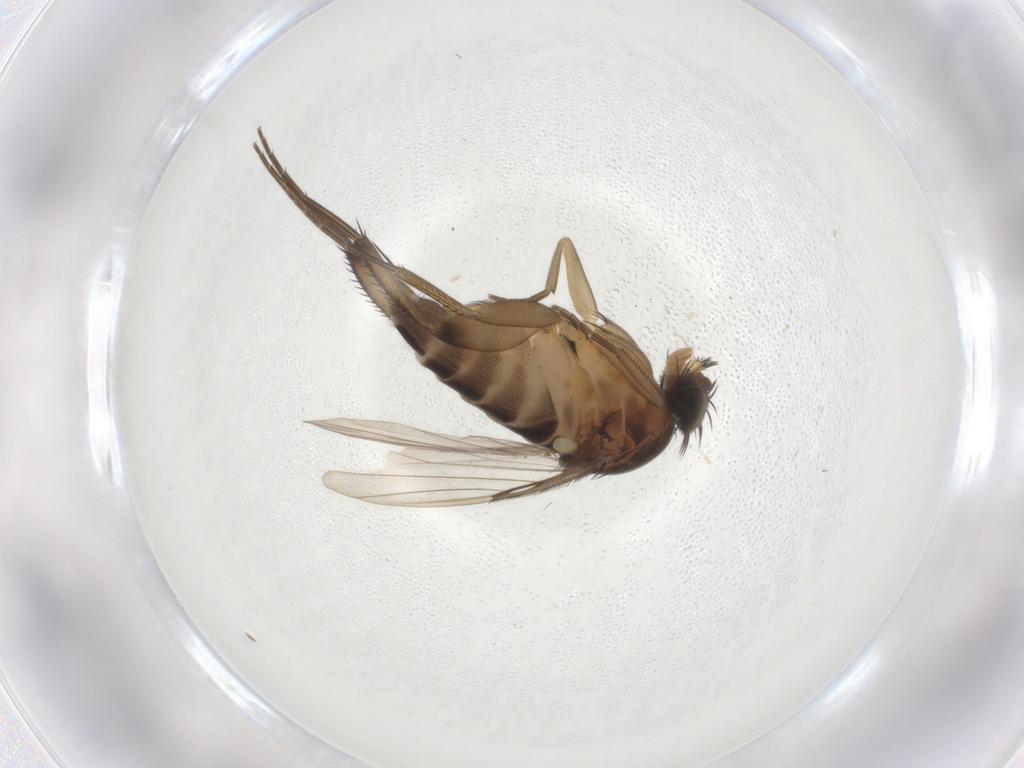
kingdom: Animalia
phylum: Arthropoda
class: Insecta
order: Diptera
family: Phoridae
